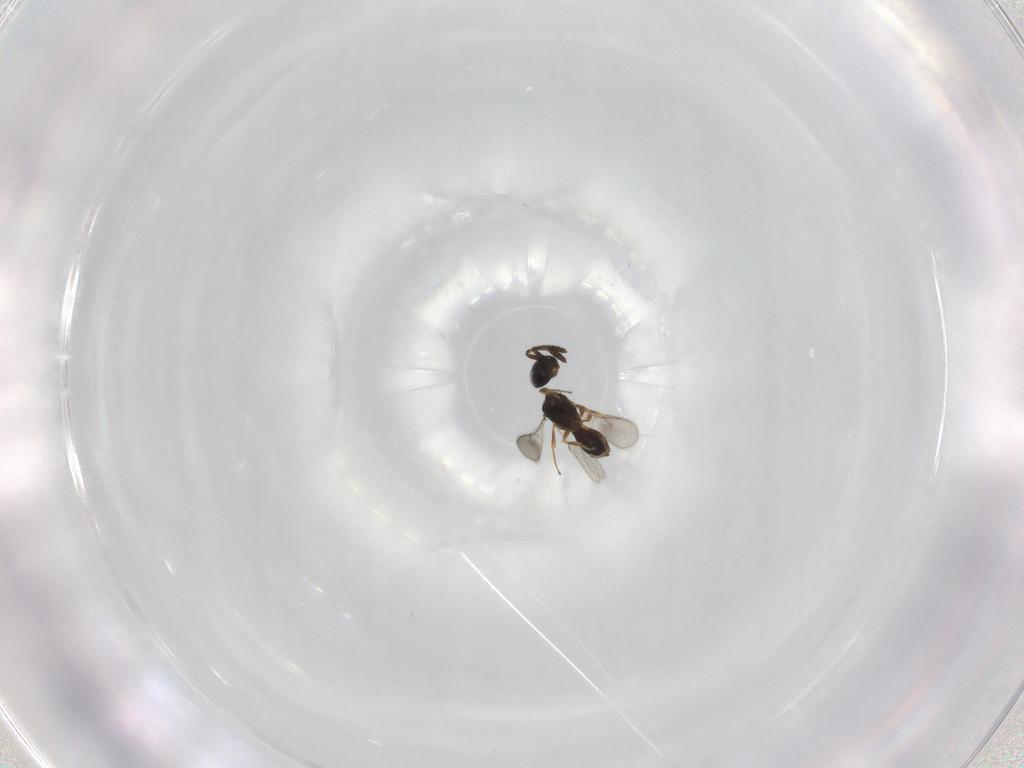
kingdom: Animalia
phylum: Arthropoda
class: Insecta
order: Hymenoptera
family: Scelionidae
